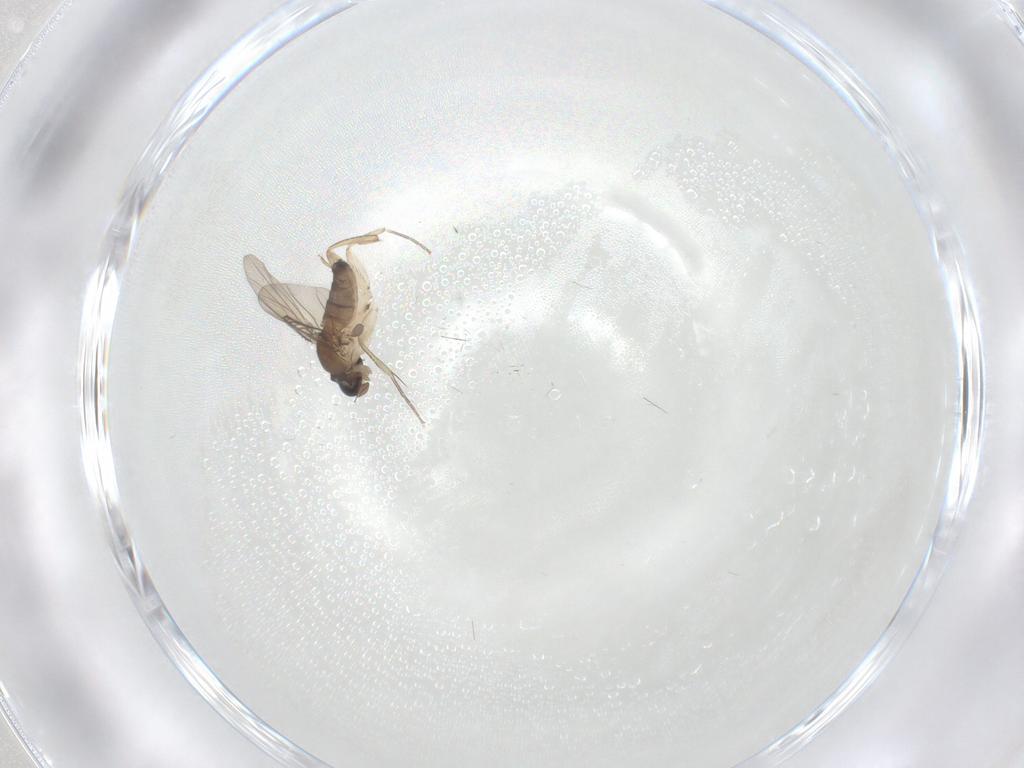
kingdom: Animalia
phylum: Arthropoda
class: Insecta
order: Diptera
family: Phoridae
